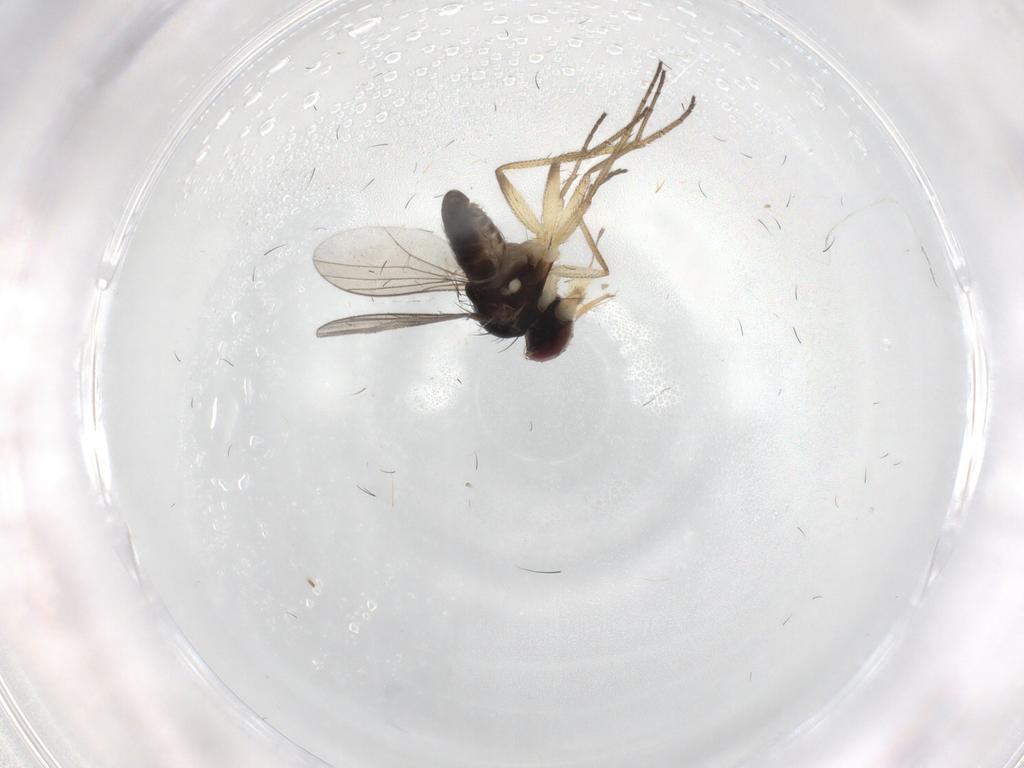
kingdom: Animalia
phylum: Arthropoda
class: Insecta
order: Diptera
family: Dolichopodidae
